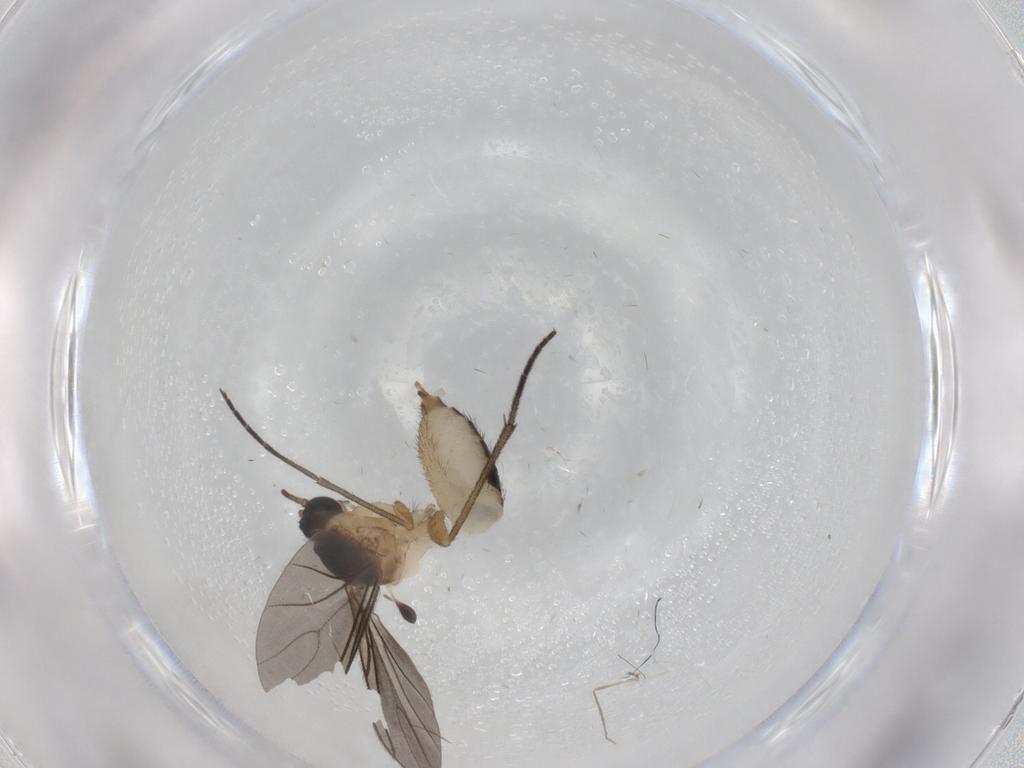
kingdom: Animalia
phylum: Arthropoda
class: Insecta
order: Diptera
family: Sciaridae
